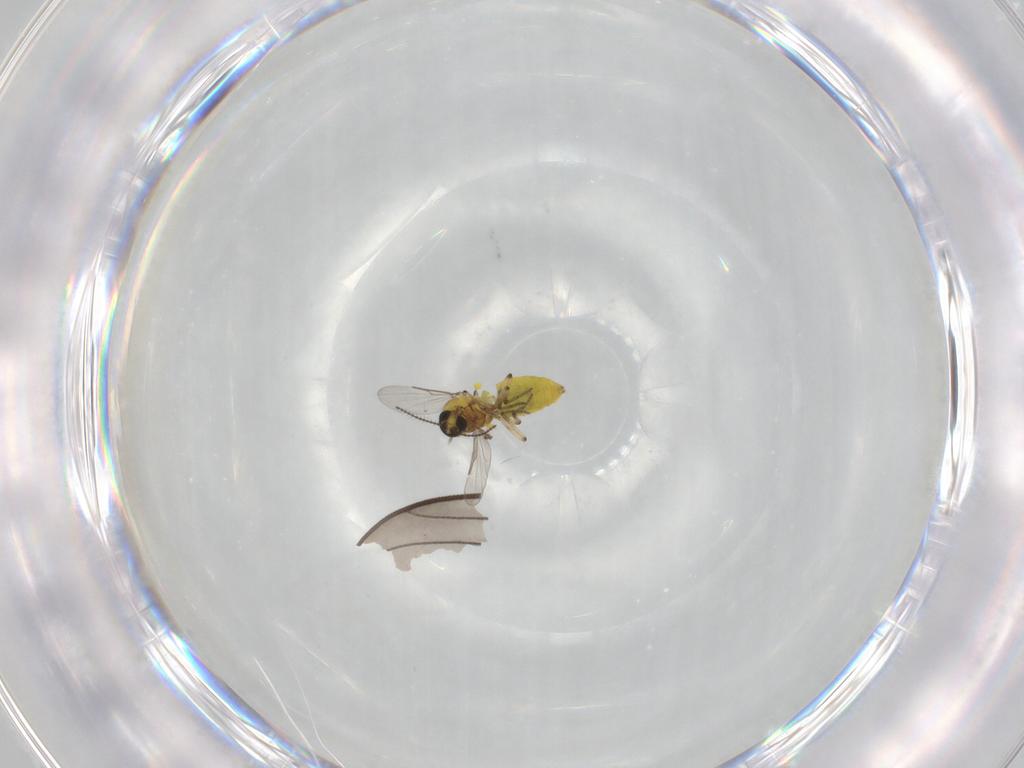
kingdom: Animalia
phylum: Arthropoda
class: Insecta
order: Diptera
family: Ceratopogonidae
